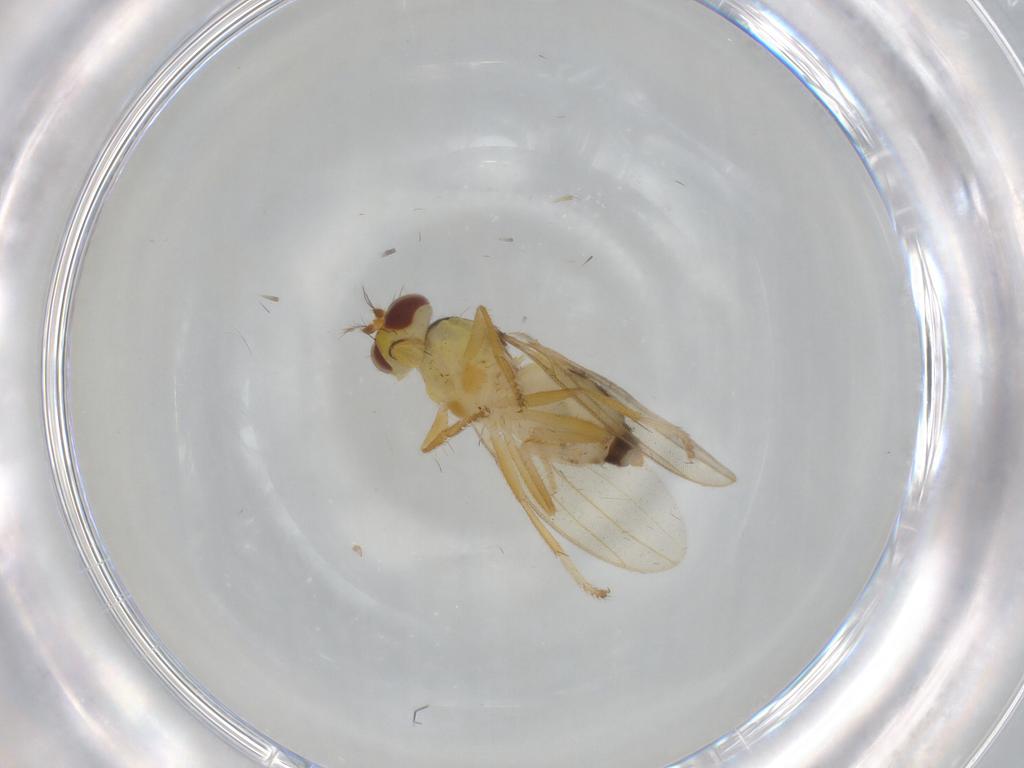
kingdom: Animalia
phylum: Arthropoda
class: Insecta
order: Diptera
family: Periscelididae
